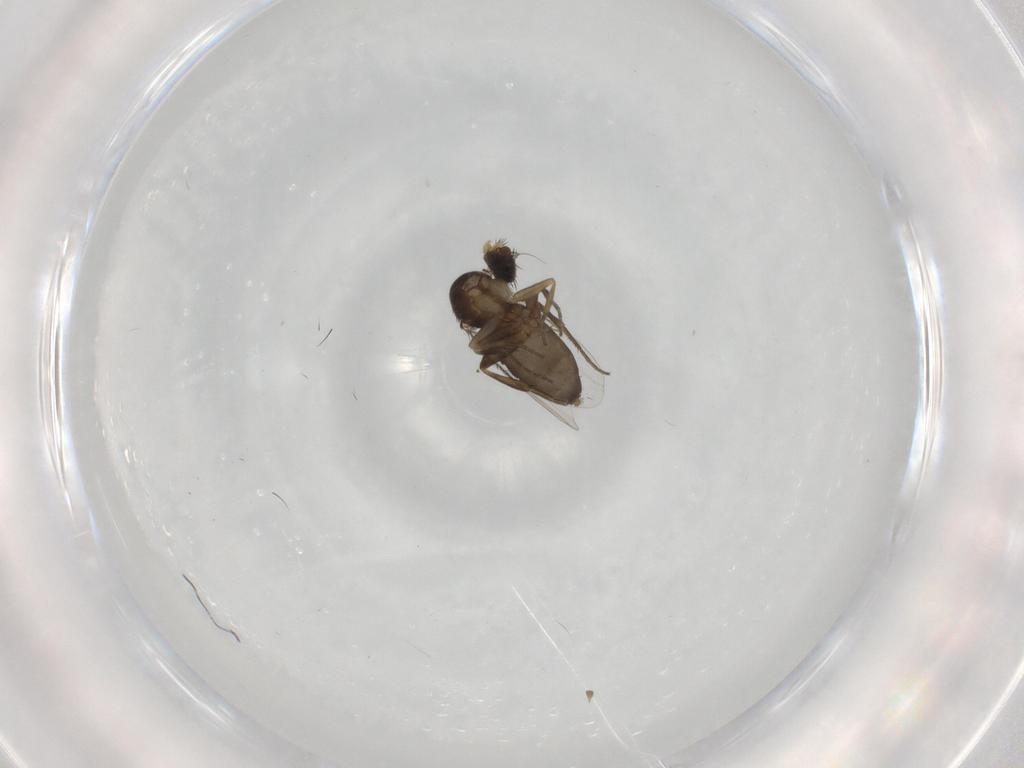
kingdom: Animalia
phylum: Arthropoda
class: Insecta
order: Diptera
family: Phoridae
